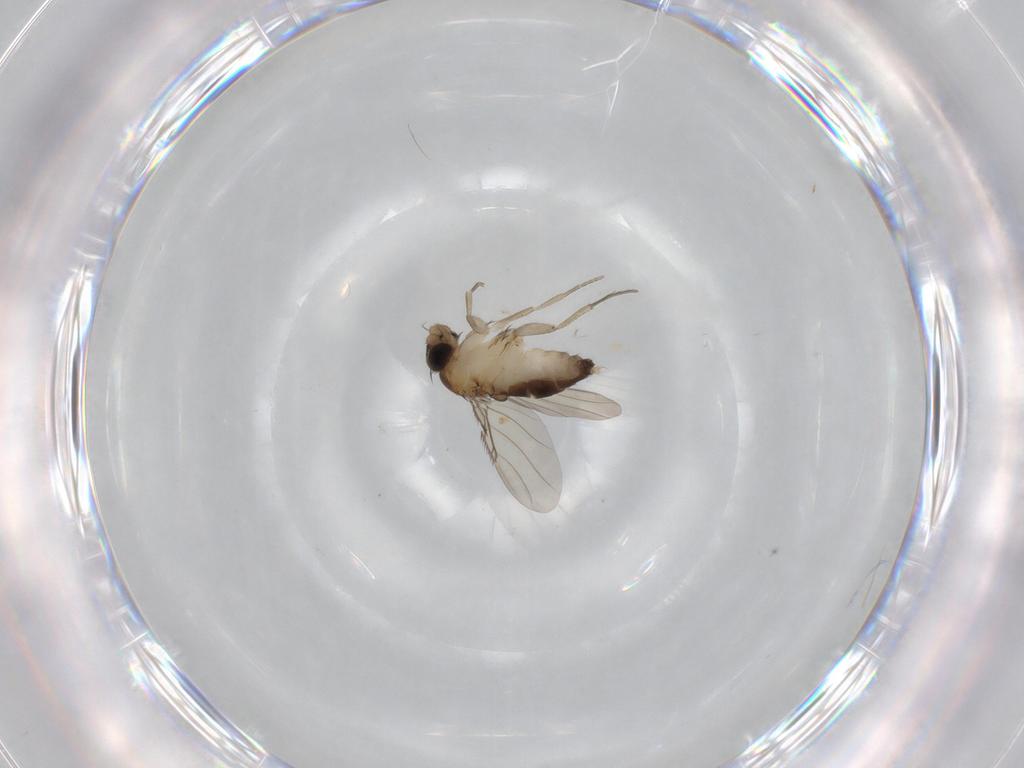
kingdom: Animalia
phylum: Arthropoda
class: Insecta
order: Diptera
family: Phoridae
